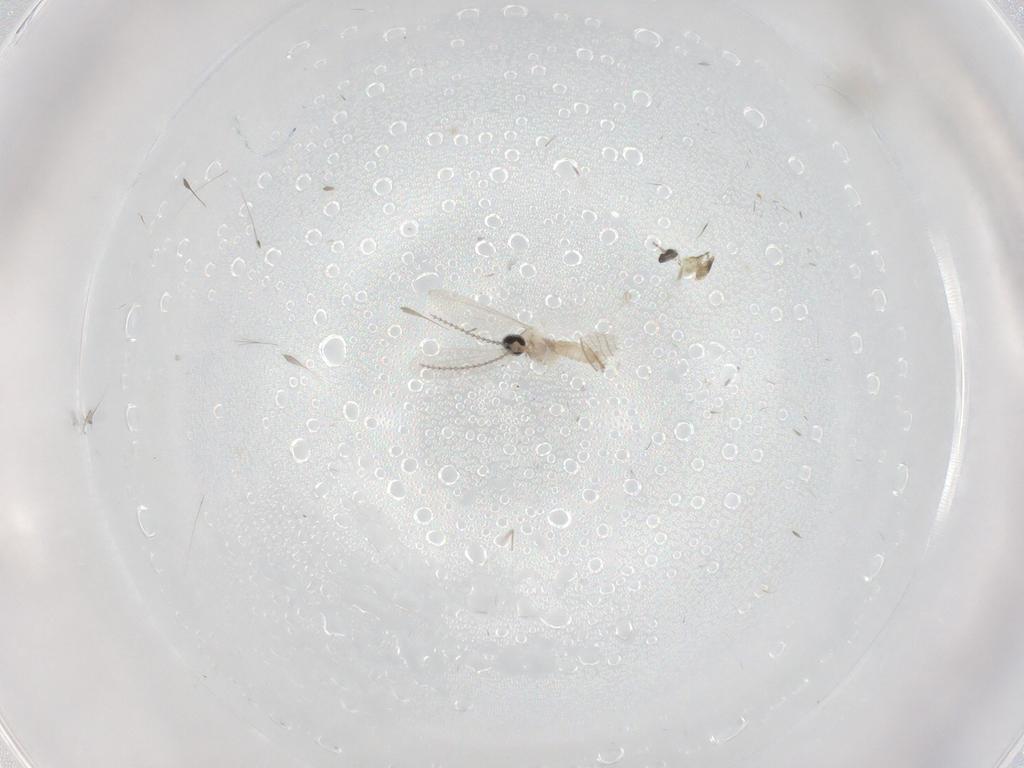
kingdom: Animalia
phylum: Arthropoda
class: Insecta
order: Diptera
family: Cecidomyiidae
